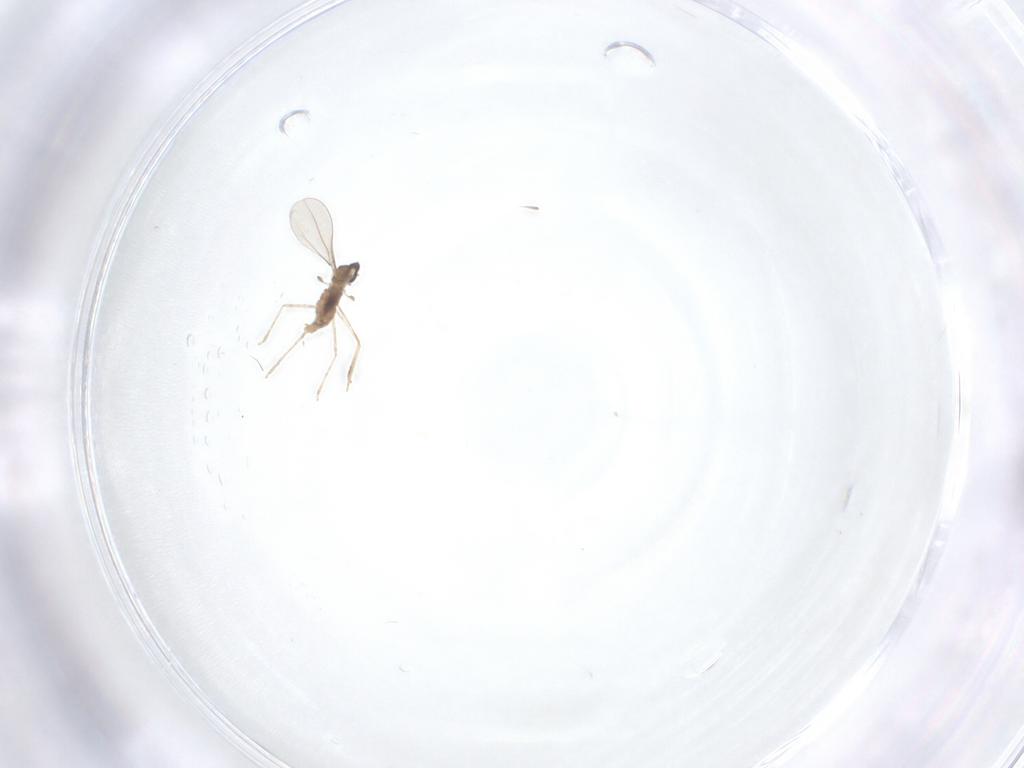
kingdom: Animalia
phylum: Arthropoda
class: Insecta
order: Diptera
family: Cecidomyiidae
